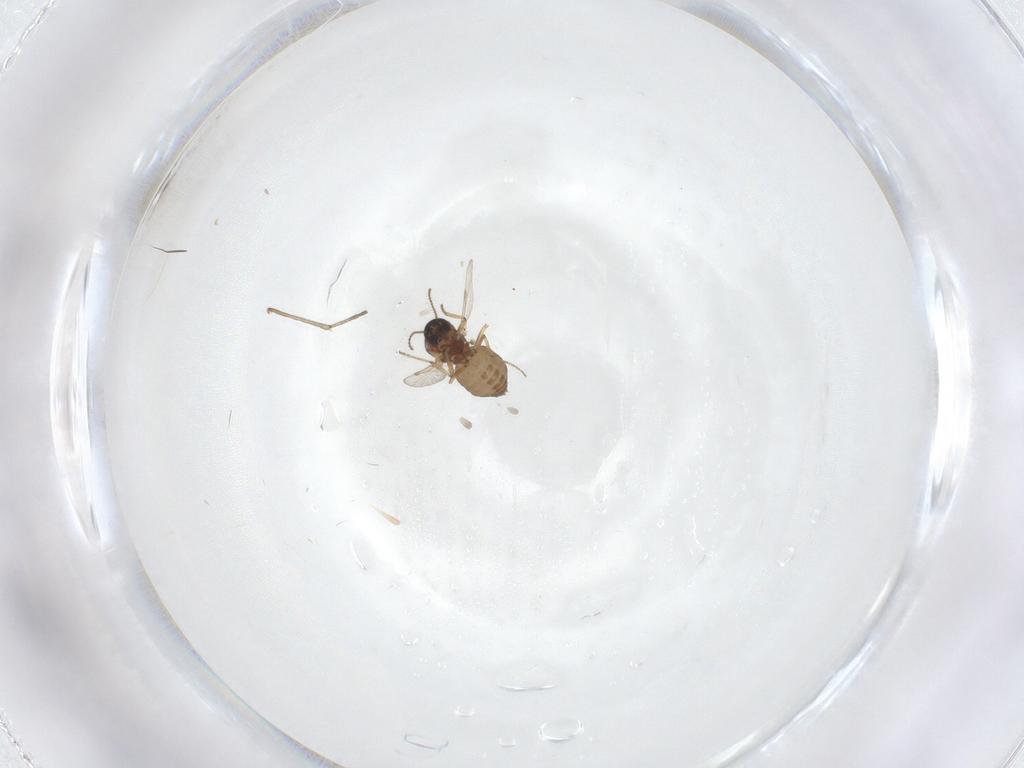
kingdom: Animalia
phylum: Arthropoda
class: Insecta
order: Diptera
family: Ceratopogonidae
